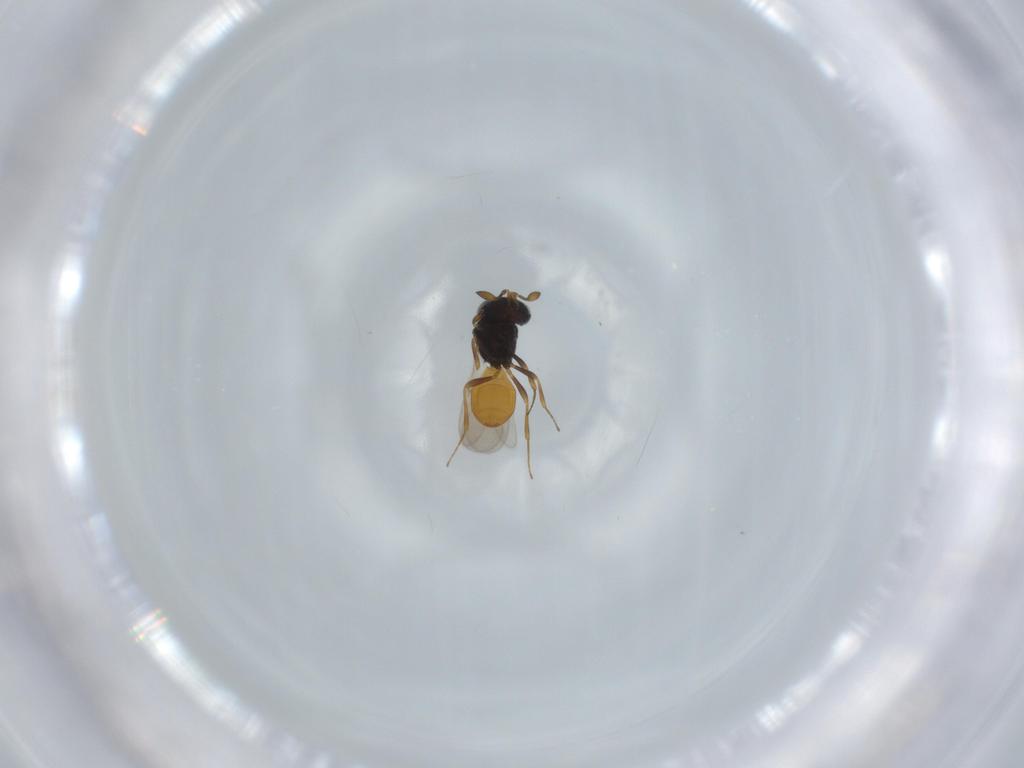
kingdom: Animalia
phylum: Arthropoda
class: Insecta
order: Hymenoptera
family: Scelionidae
